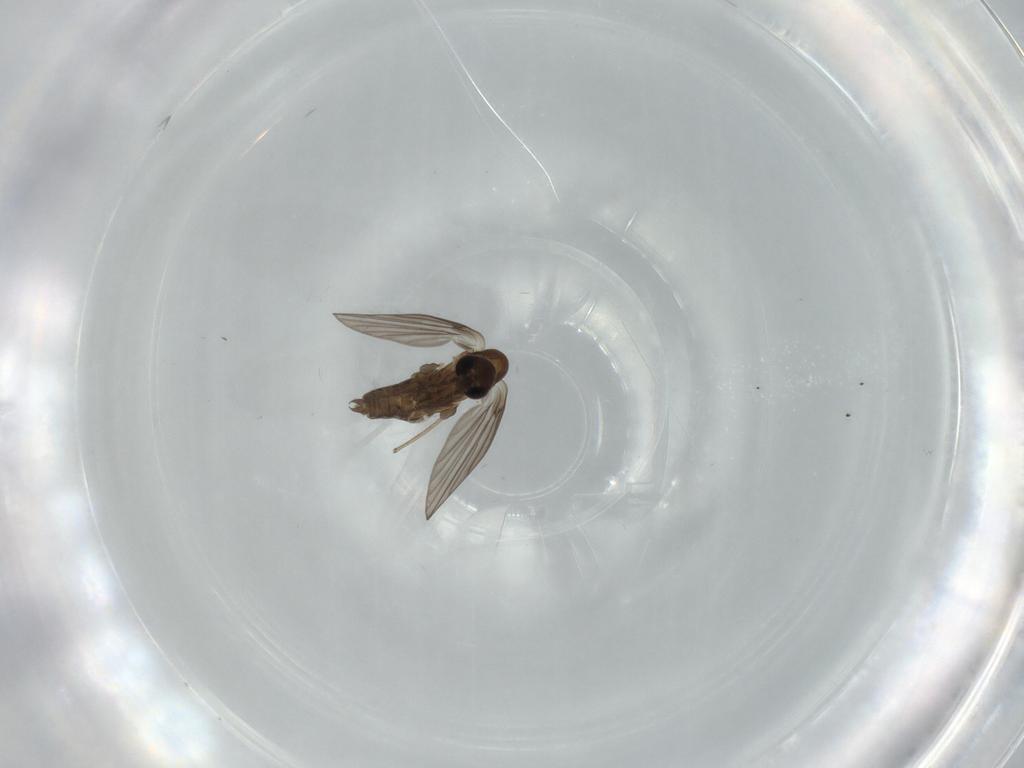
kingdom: Animalia
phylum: Arthropoda
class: Insecta
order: Diptera
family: Psychodidae
